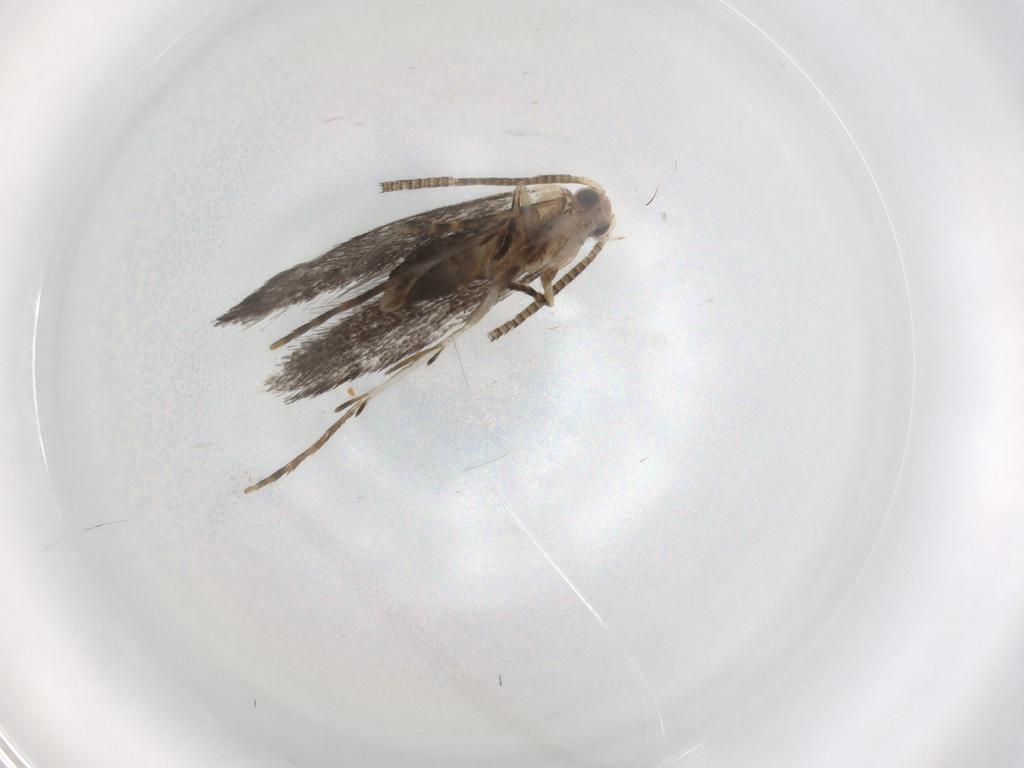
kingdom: Animalia
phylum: Arthropoda
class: Insecta
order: Lepidoptera
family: Tineidae
